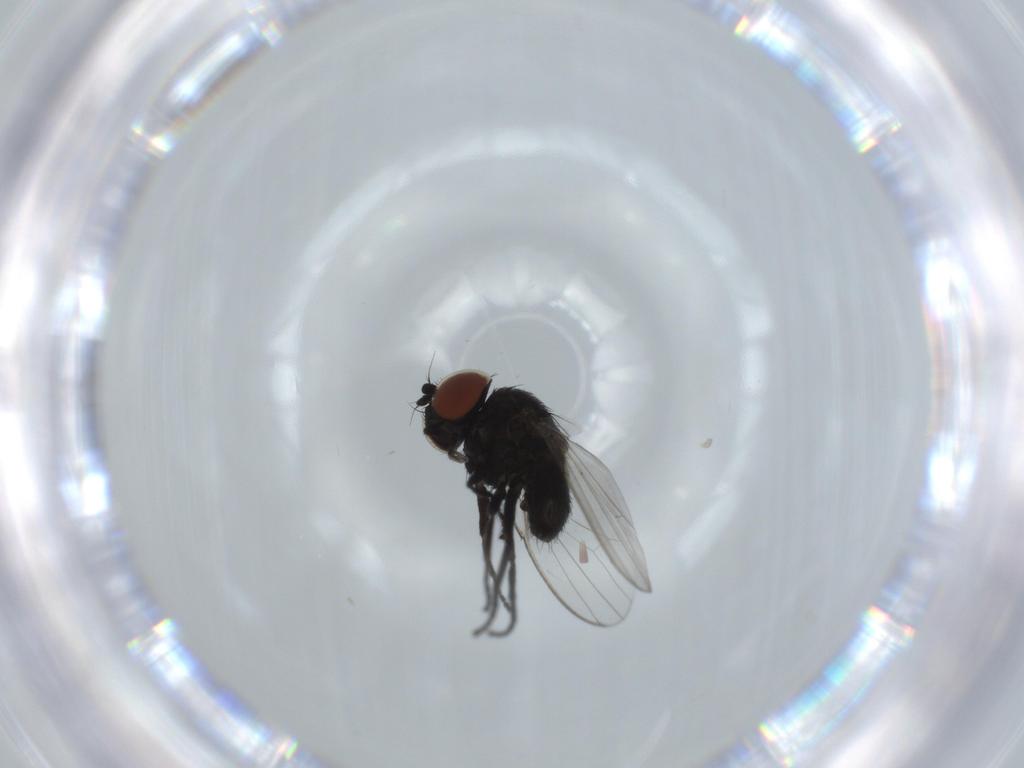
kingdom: Animalia
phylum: Arthropoda
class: Insecta
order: Diptera
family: Milichiidae
